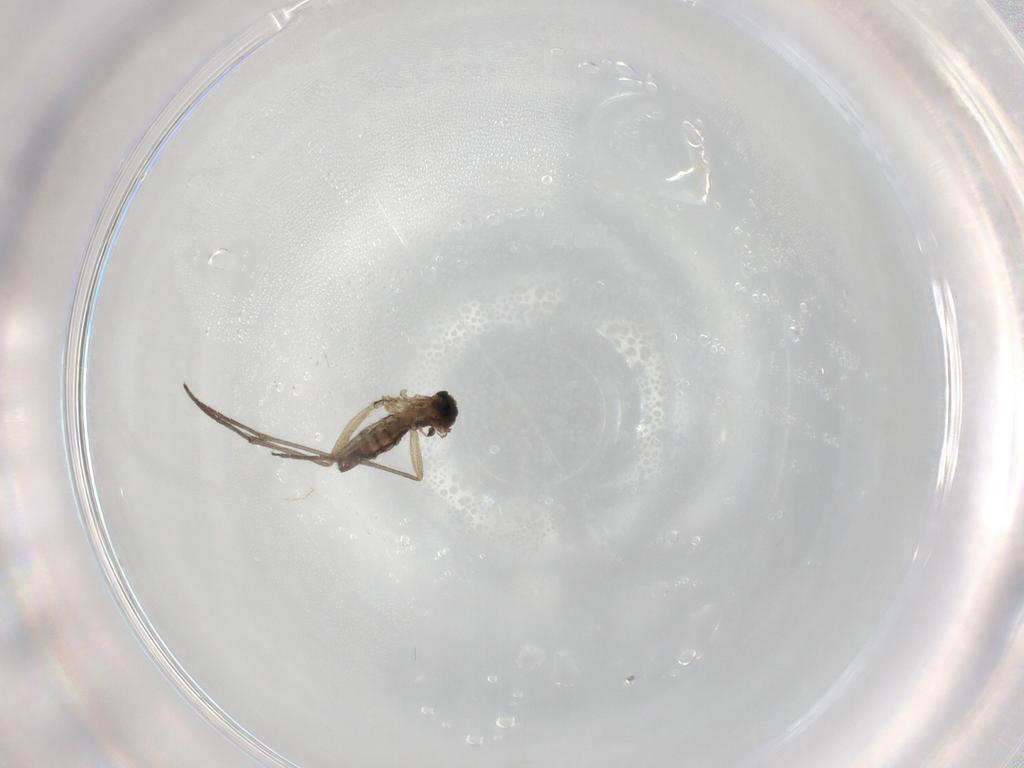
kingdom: Animalia
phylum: Arthropoda
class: Insecta
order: Diptera
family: Sciaridae
